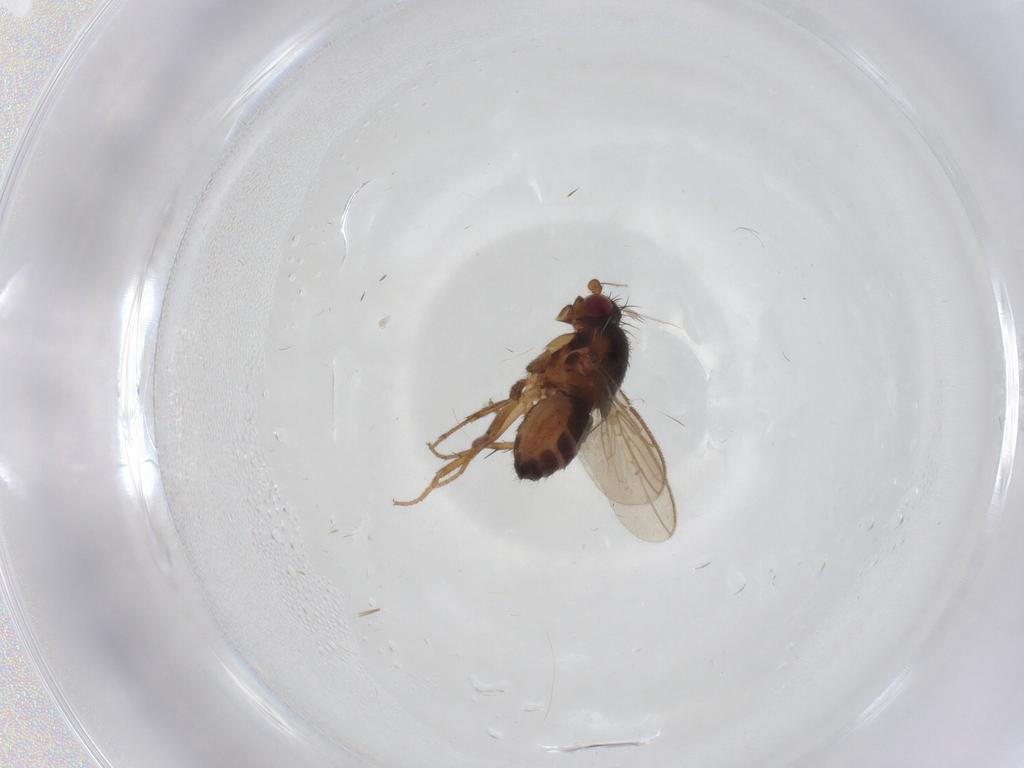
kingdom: Animalia
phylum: Arthropoda
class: Insecta
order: Diptera
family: Sphaeroceridae
